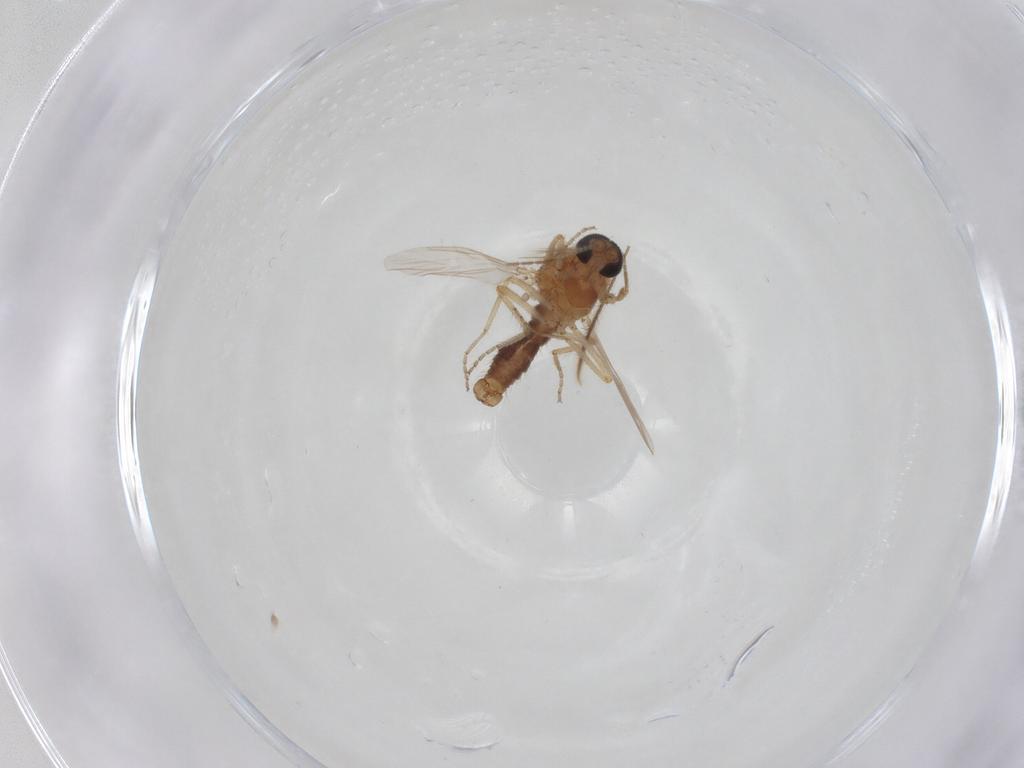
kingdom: Animalia
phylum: Arthropoda
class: Insecta
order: Diptera
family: Ceratopogonidae
